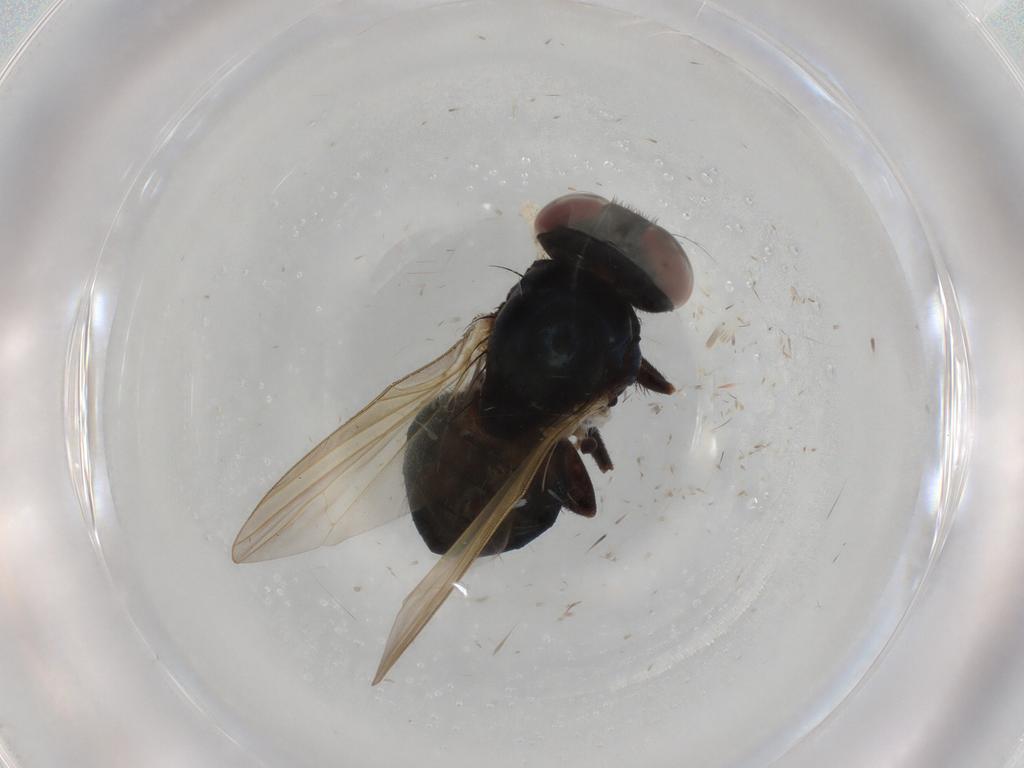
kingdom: Animalia
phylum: Arthropoda
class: Insecta
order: Diptera
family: Lonchaeidae
